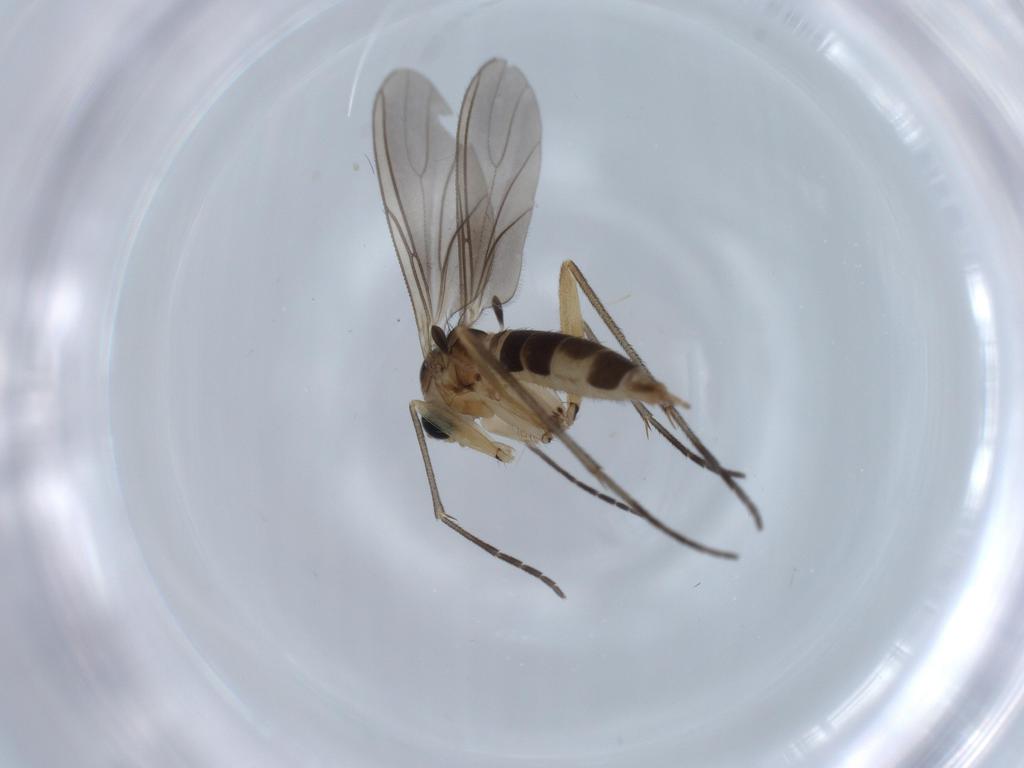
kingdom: Animalia
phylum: Arthropoda
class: Insecta
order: Diptera
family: Sciaridae
